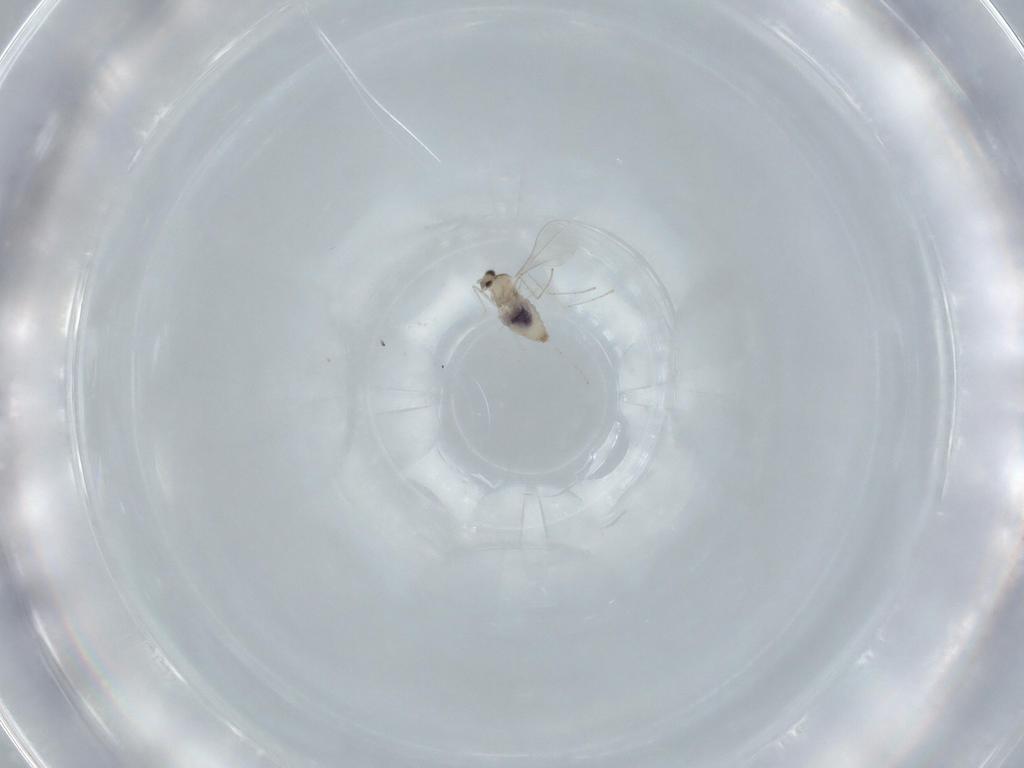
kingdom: Animalia
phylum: Arthropoda
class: Insecta
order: Diptera
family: Cecidomyiidae
